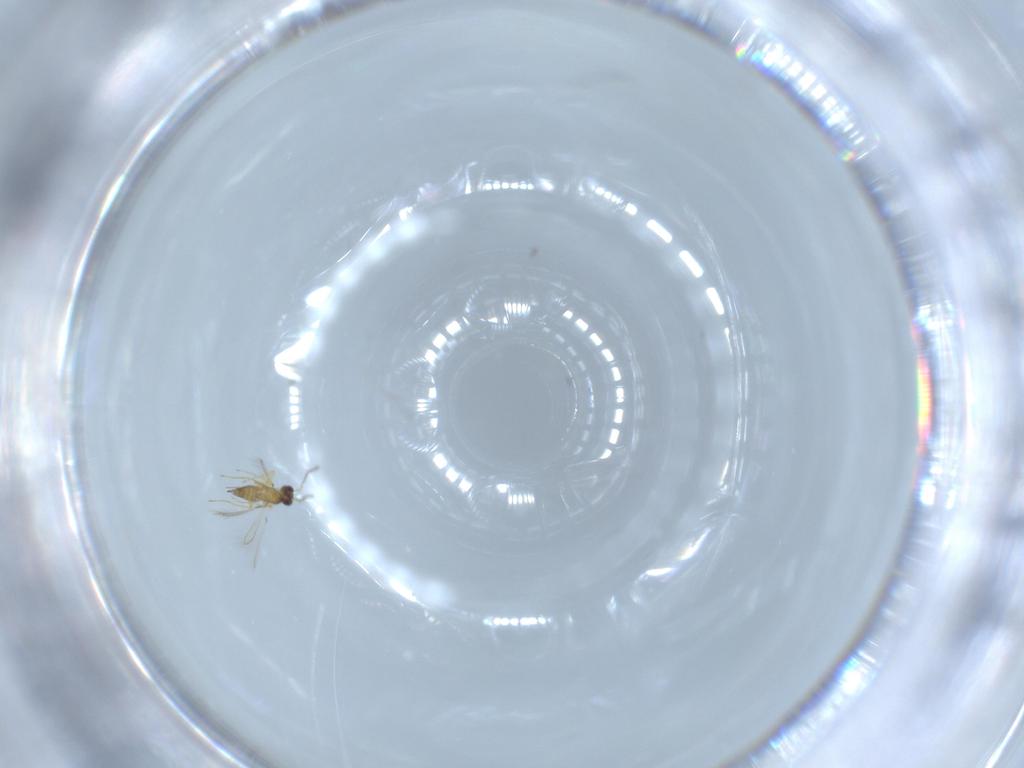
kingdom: Animalia
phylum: Arthropoda
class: Insecta
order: Hymenoptera
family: Mymaridae
